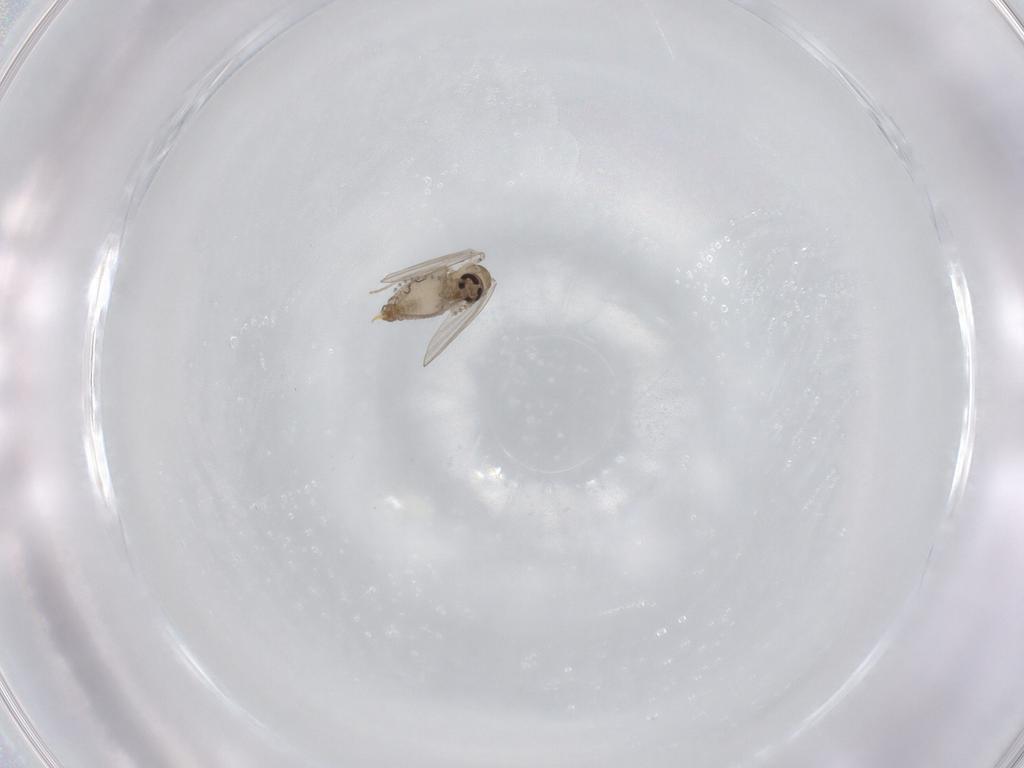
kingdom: Animalia
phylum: Arthropoda
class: Insecta
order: Diptera
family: Psychodidae
